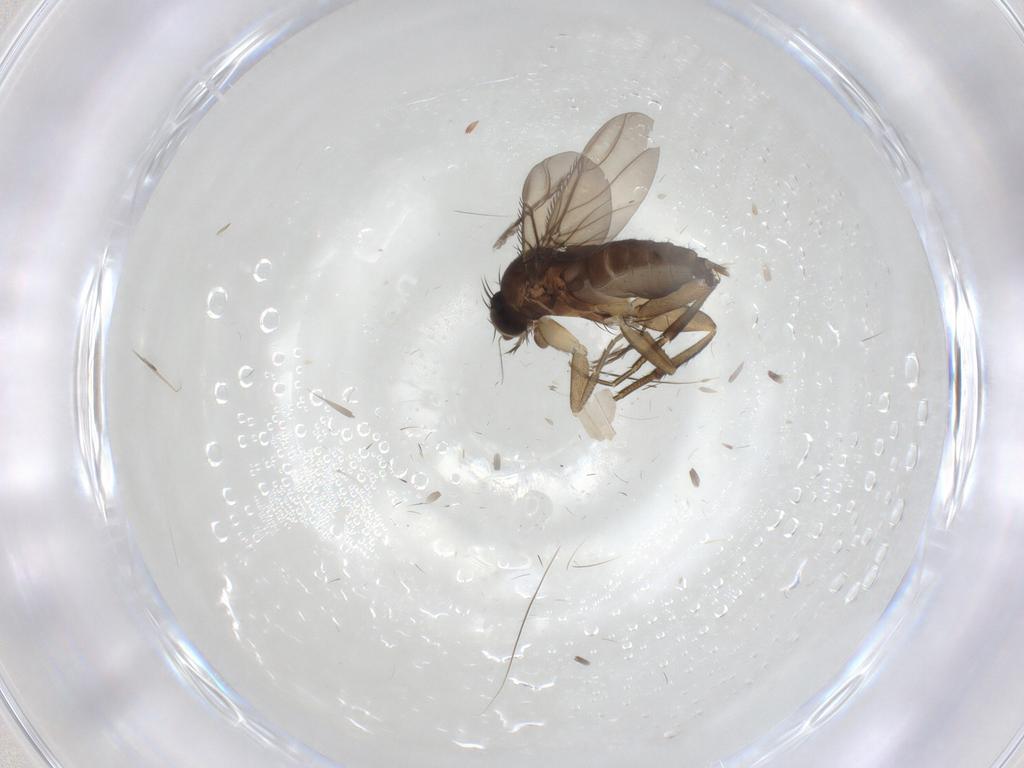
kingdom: Animalia
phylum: Arthropoda
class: Insecta
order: Diptera
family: Phoridae
